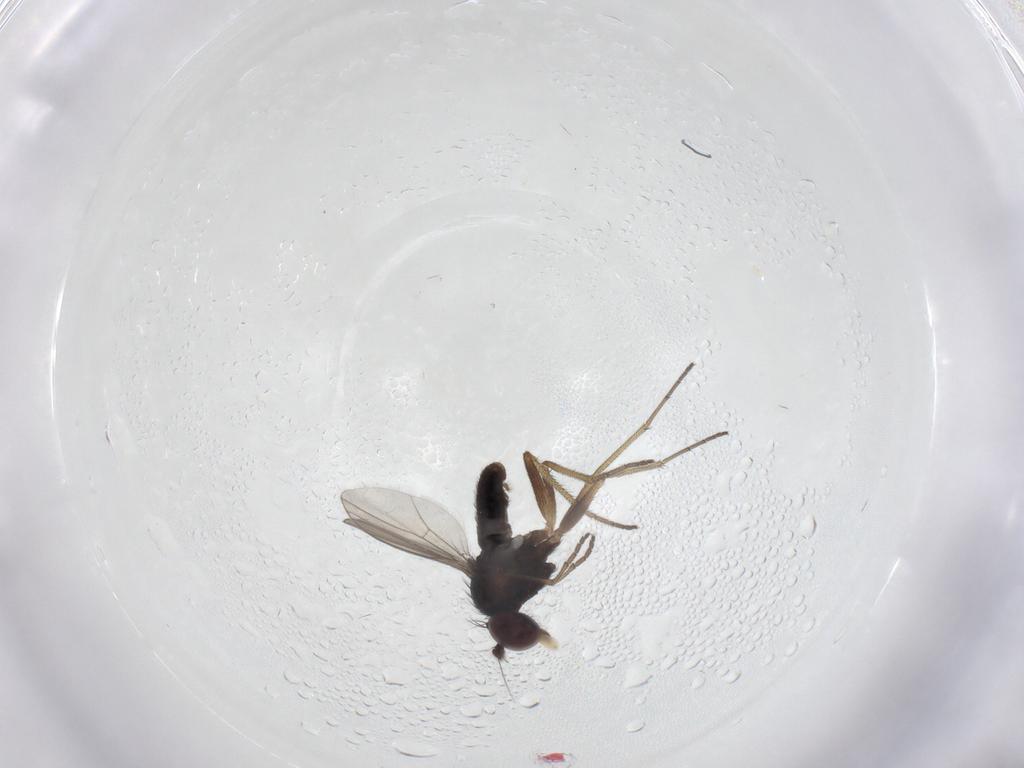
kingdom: Animalia
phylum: Arthropoda
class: Insecta
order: Diptera
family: Dolichopodidae
